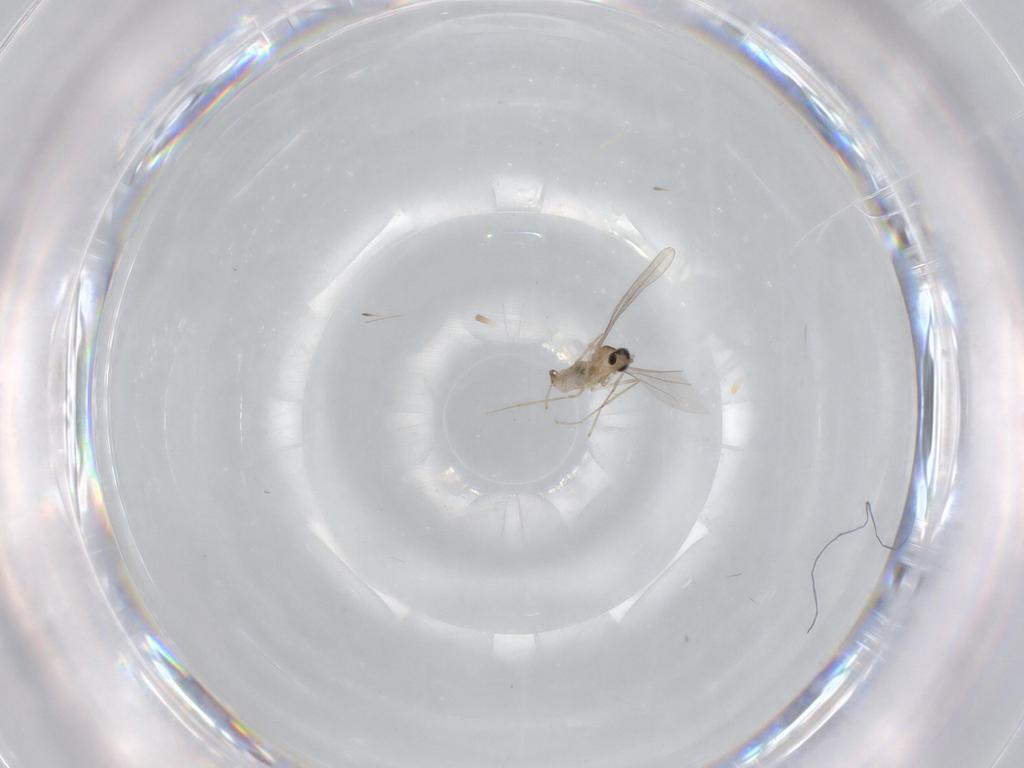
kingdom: Animalia
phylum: Arthropoda
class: Insecta
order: Diptera
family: Cecidomyiidae
